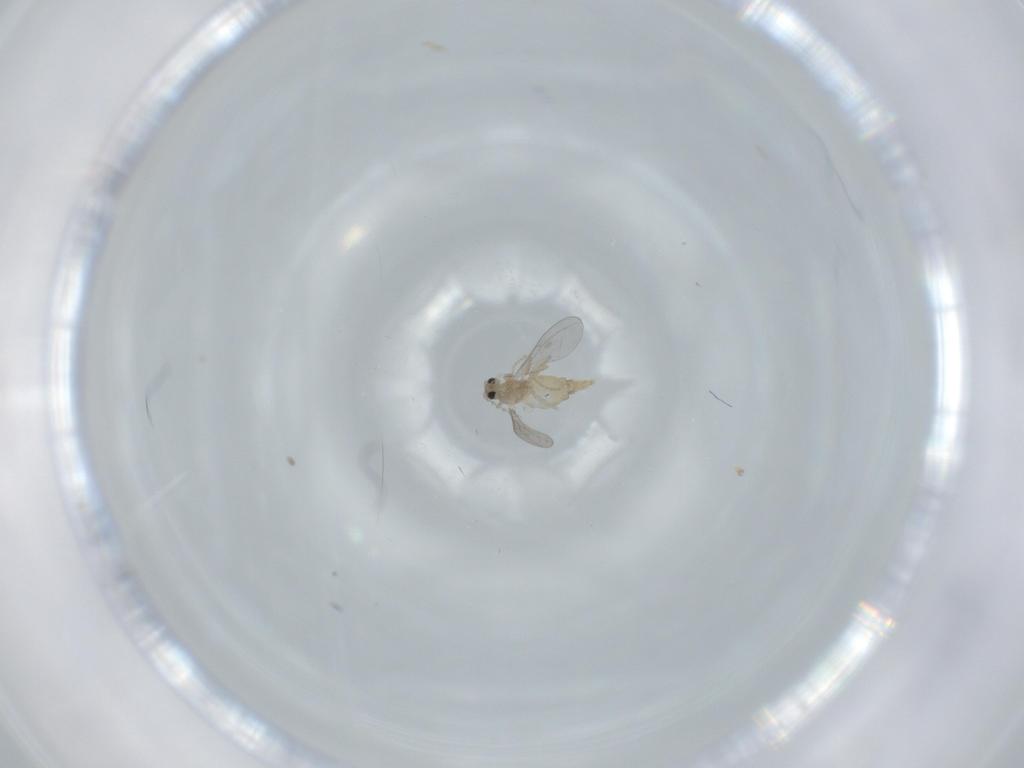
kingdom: Animalia
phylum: Arthropoda
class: Insecta
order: Diptera
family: Cecidomyiidae
